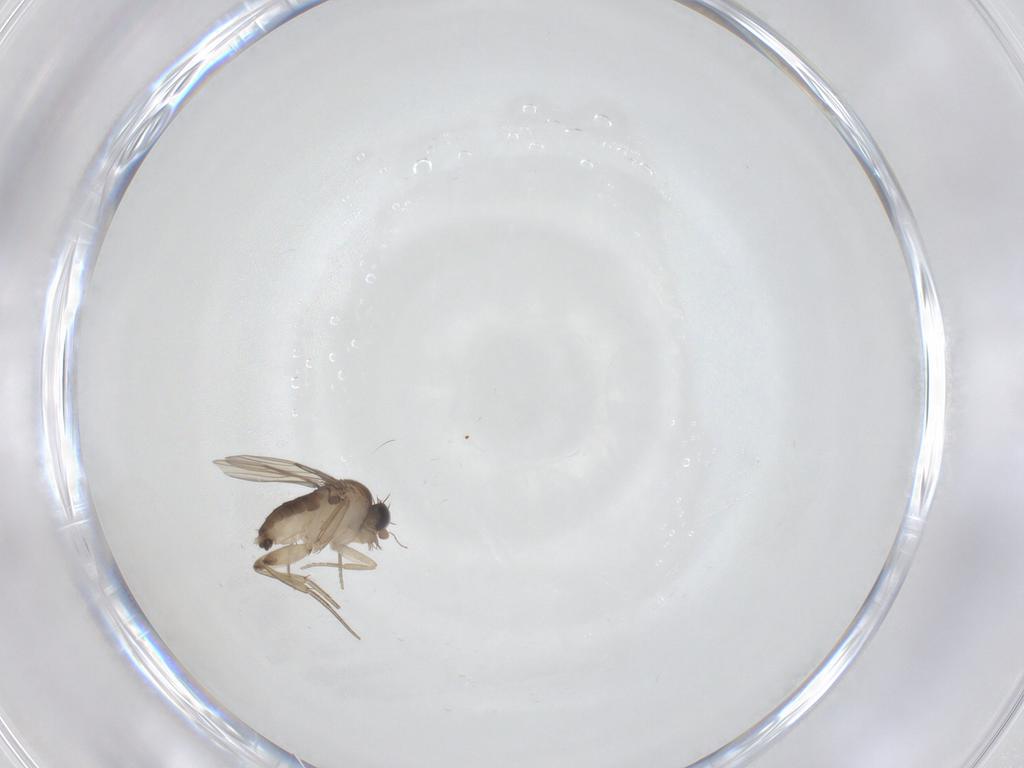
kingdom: Animalia
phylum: Arthropoda
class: Insecta
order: Diptera
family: Phoridae
